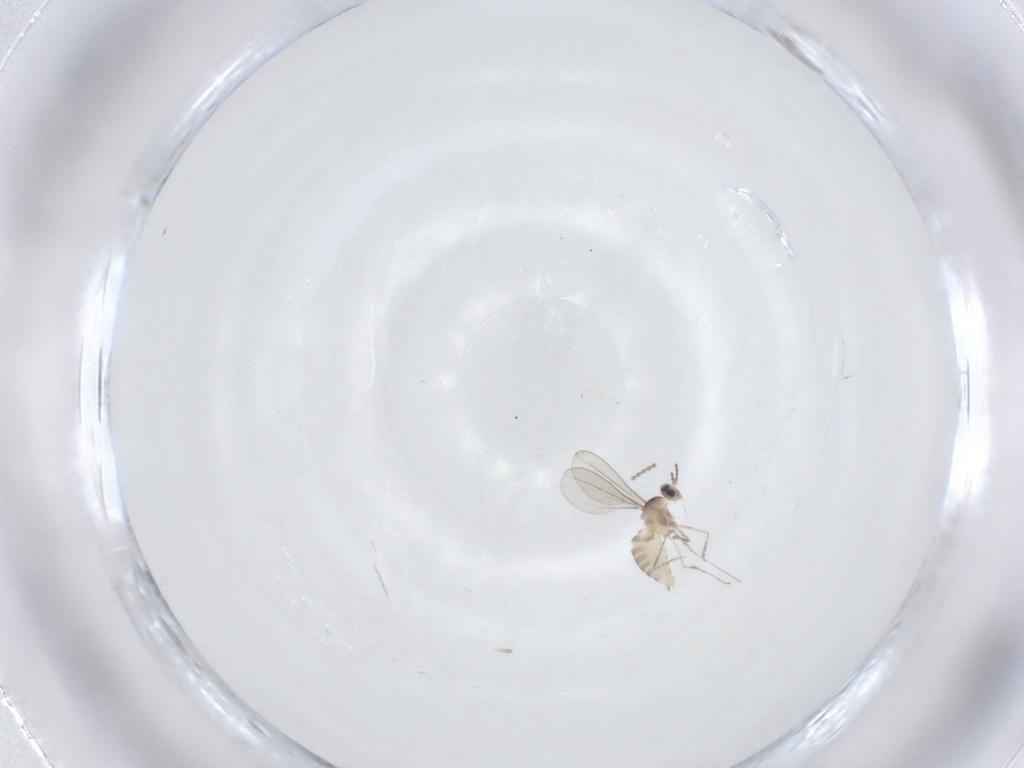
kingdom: Animalia
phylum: Arthropoda
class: Insecta
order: Diptera
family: Cecidomyiidae
